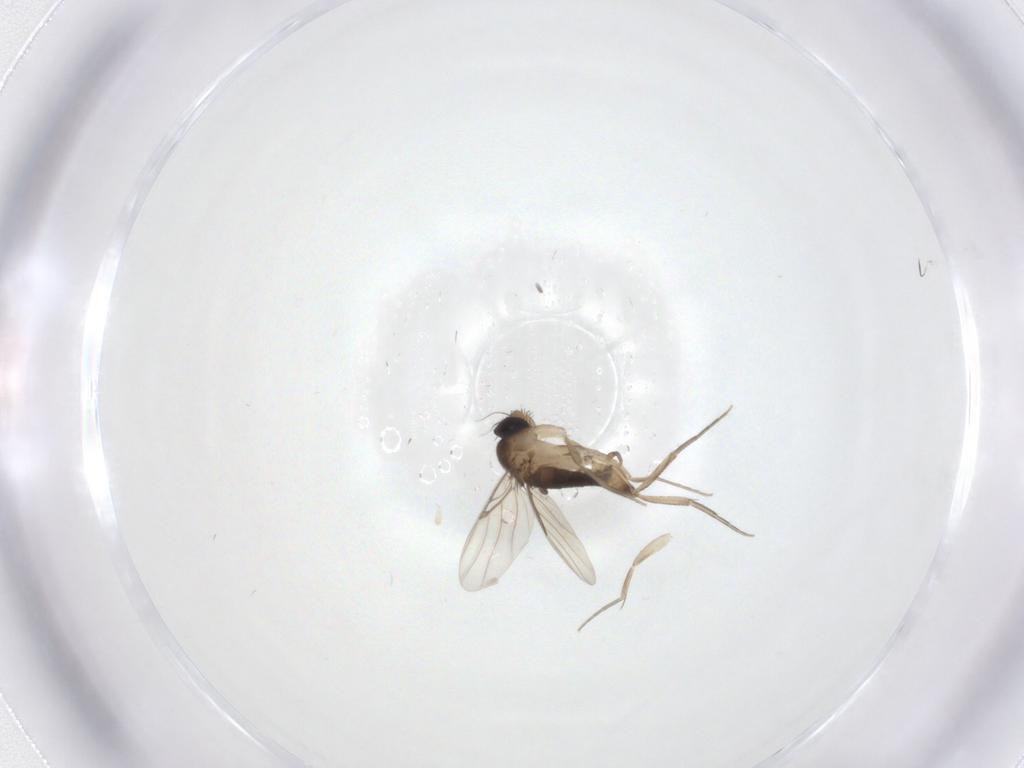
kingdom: Animalia
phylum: Arthropoda
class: Insecta
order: Diptera
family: Phoridae
